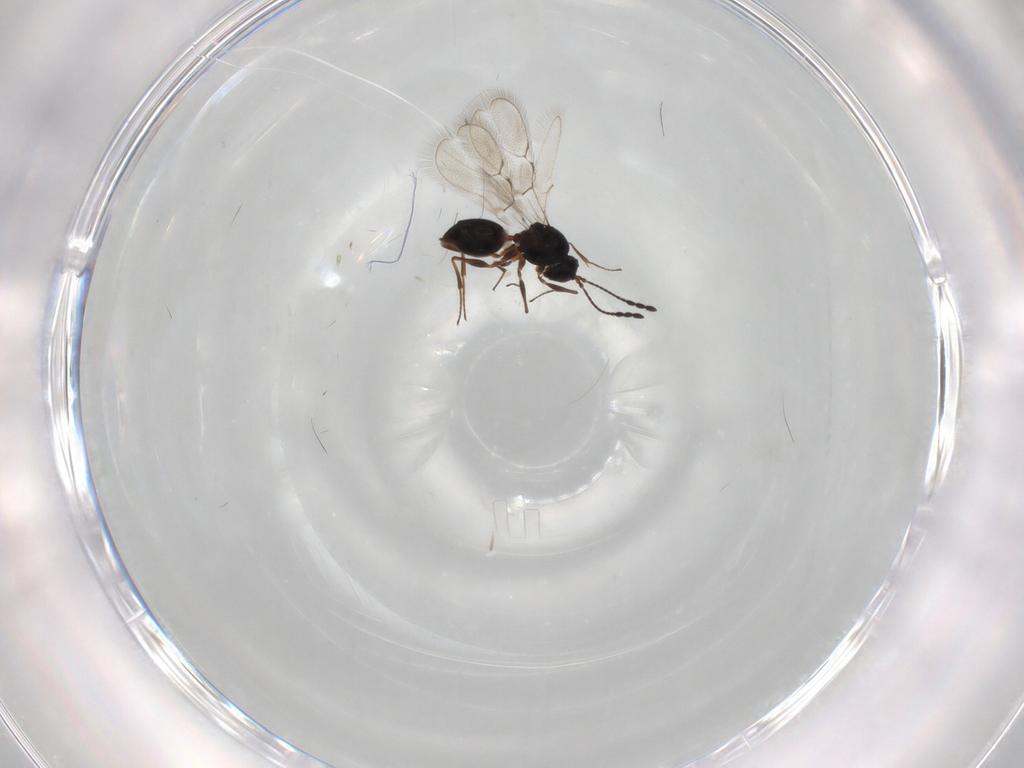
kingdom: Animalia
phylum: Arthropoda
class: Insecta
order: Hymenoptera
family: Figitidae
